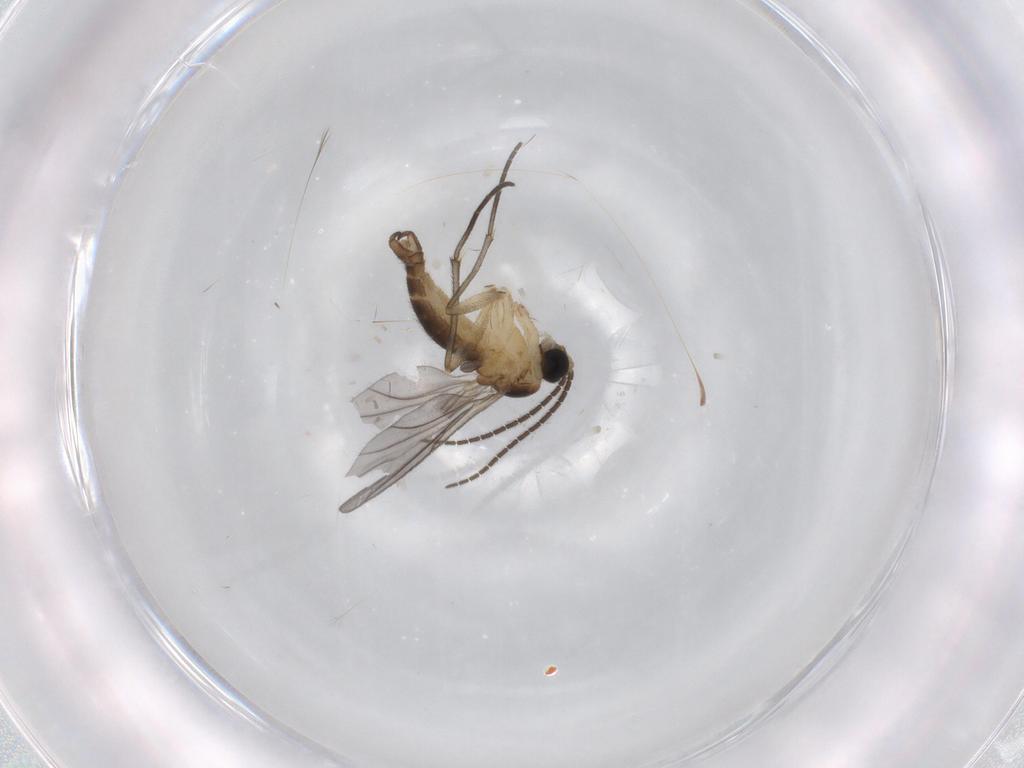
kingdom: Animalia
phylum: Arthropoda
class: Insecta
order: Diptera
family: Sciaridae
